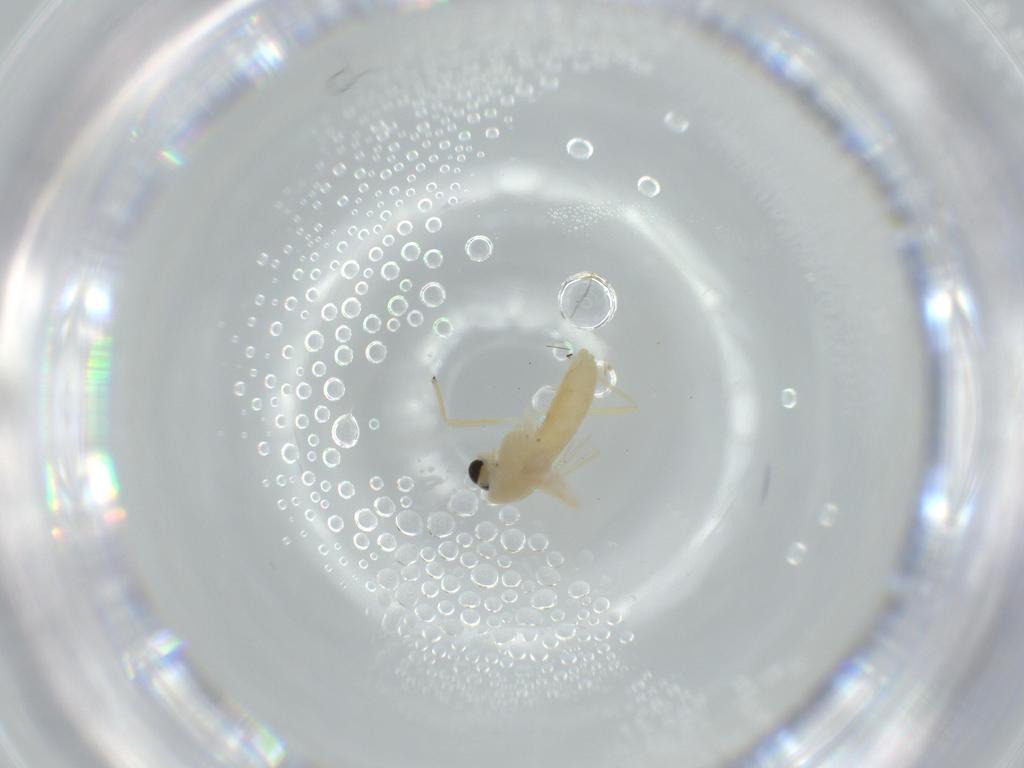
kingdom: Animalia
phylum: Arthropoda
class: Insecta
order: Diptera
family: Chironomidae
